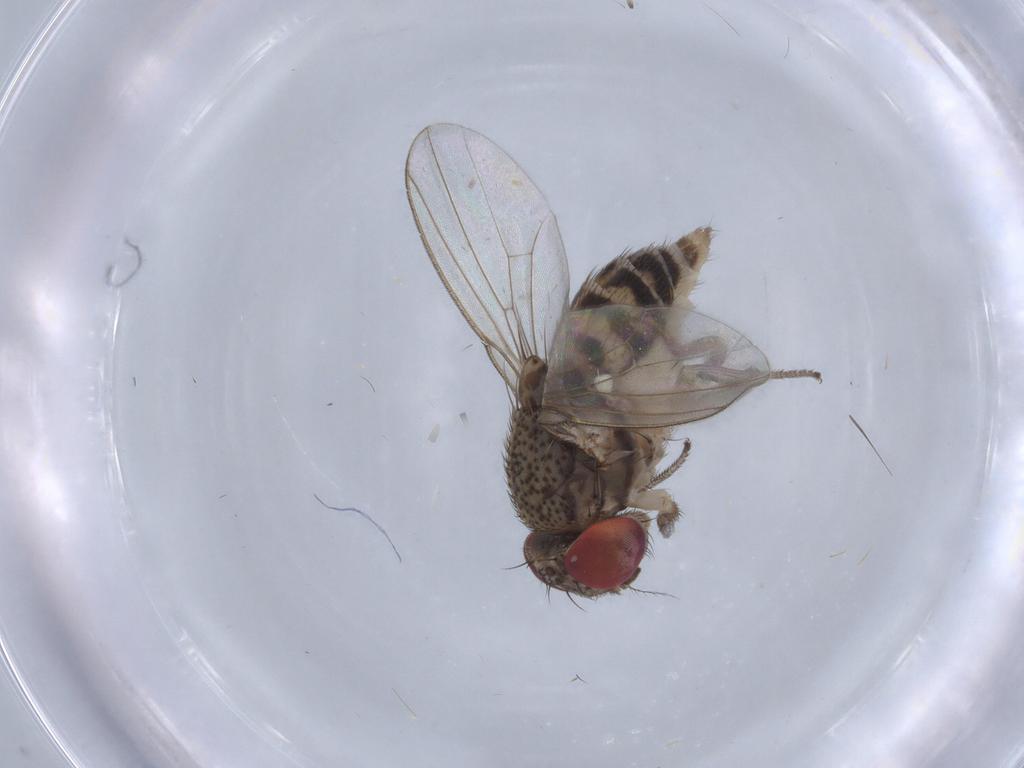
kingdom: Animalia
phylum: Arthropoda
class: Insecta
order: Diptera
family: Drosophilidae
